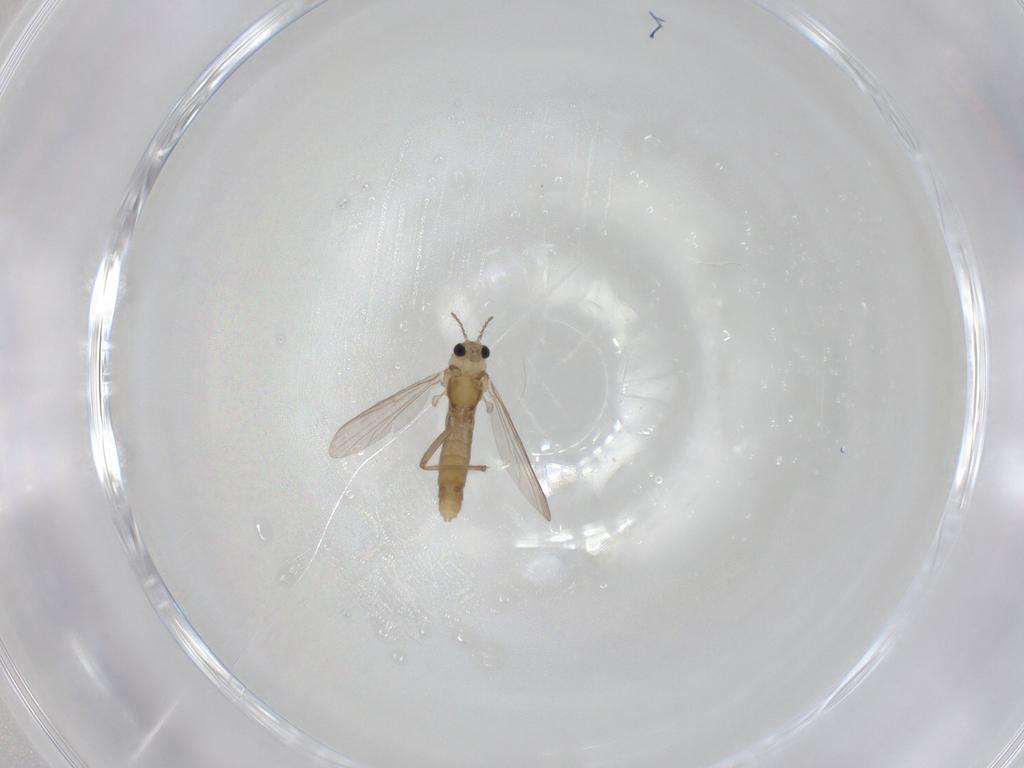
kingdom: Animalia
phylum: Arthropoda
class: Insecta
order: Diptera
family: Chironomidae
